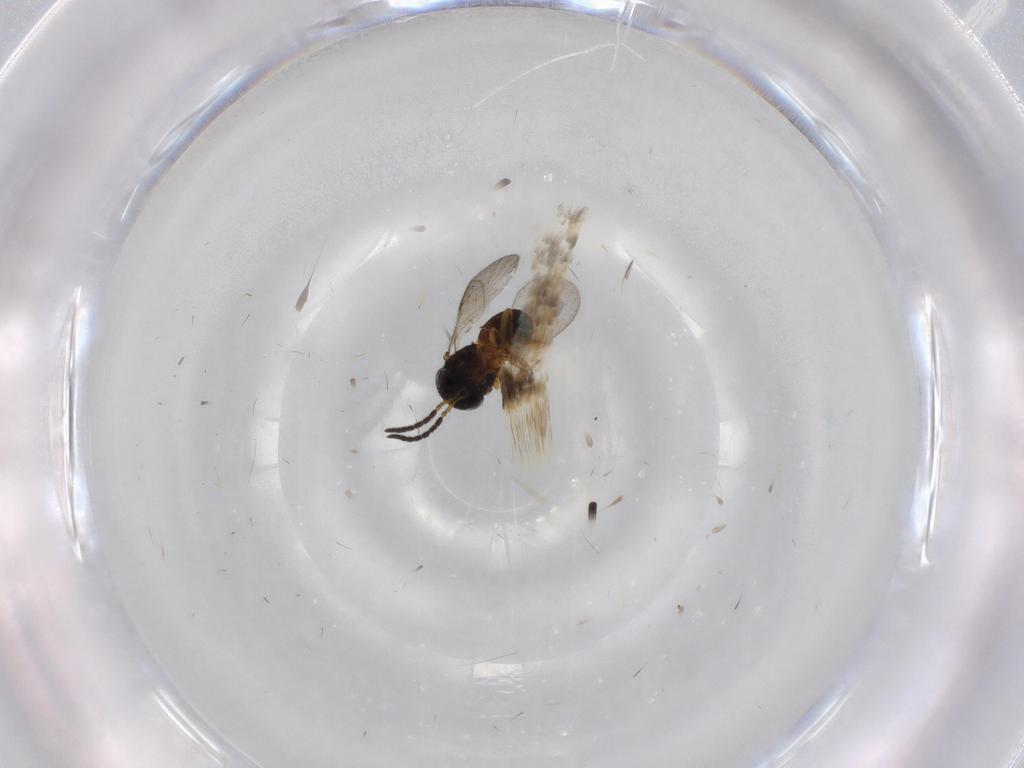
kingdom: Animalia
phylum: Arthropoda
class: Insecta
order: Hymenoptera
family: Scelionidae
